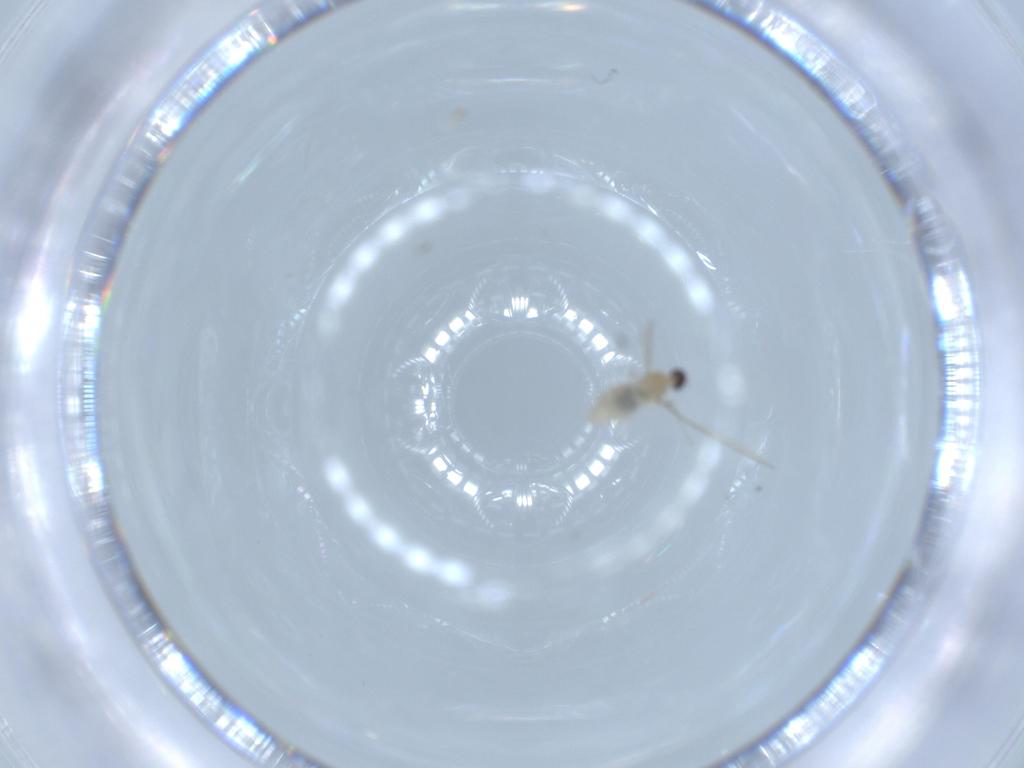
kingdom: Animalia
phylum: Arthropoda
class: Insecta
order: Diptera
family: Cecidomyiidae
